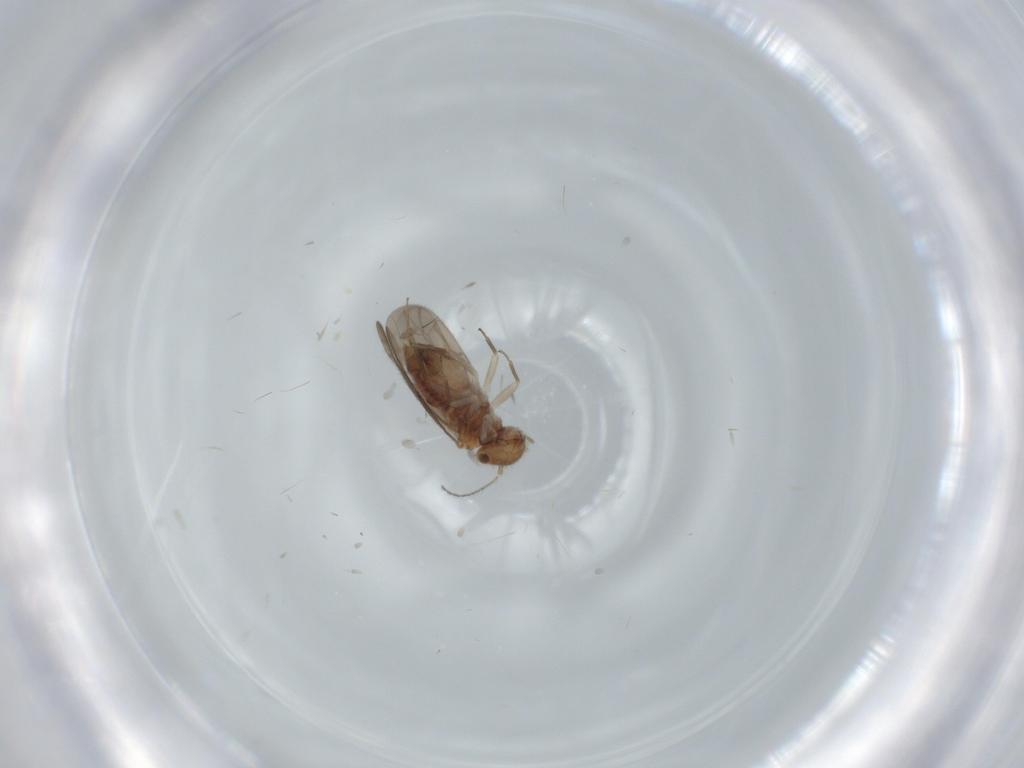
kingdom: Animalia
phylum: Arthropoda
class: Insecta
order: Psocodea
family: Ectopsocidae
